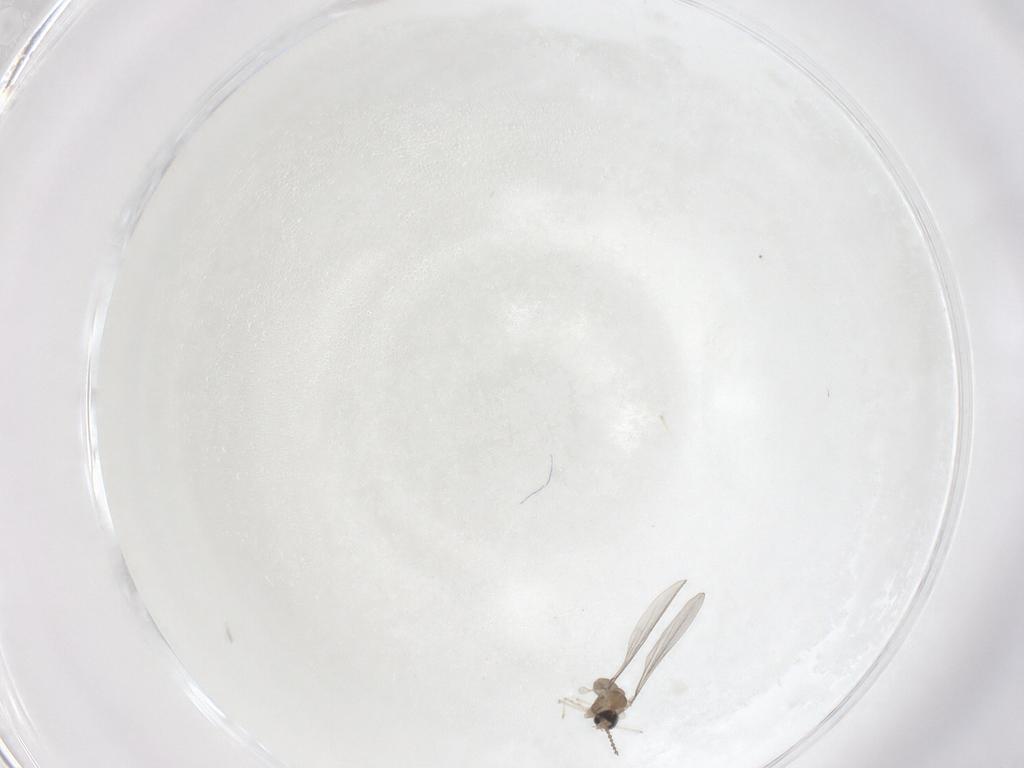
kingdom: Animalia
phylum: Arthropoda
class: Insecta
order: Diptera
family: Cecidomyiidae
